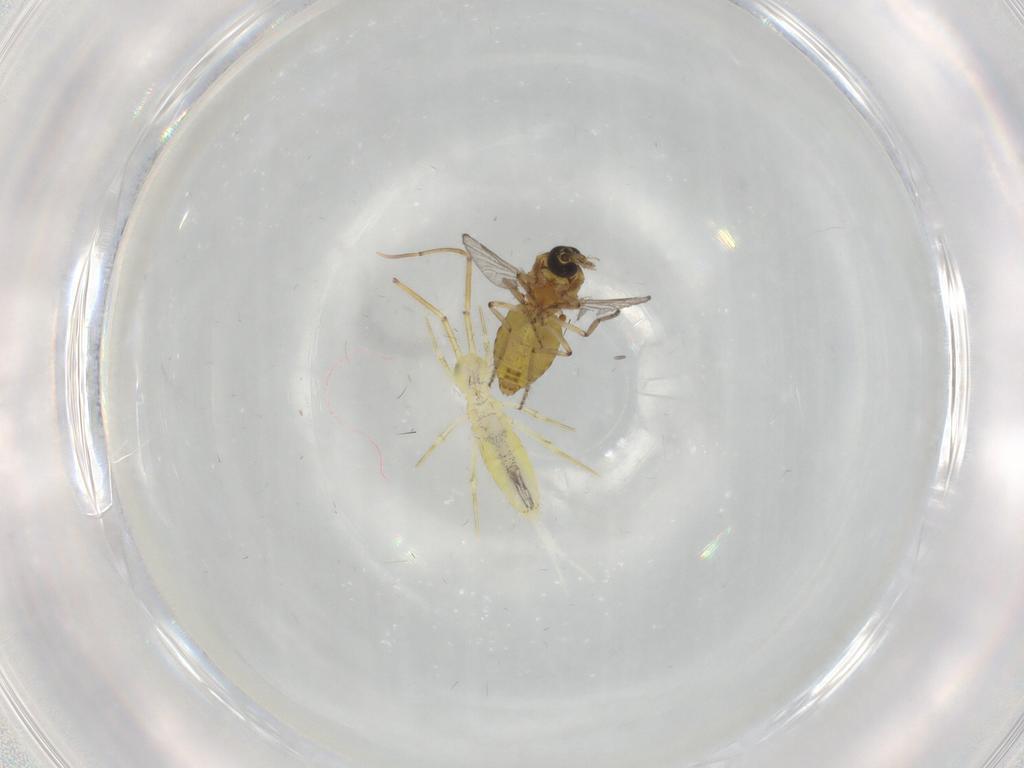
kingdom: Animalia
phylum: Arthropoda
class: Insecta
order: Diptera
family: Ceratopogonidae
